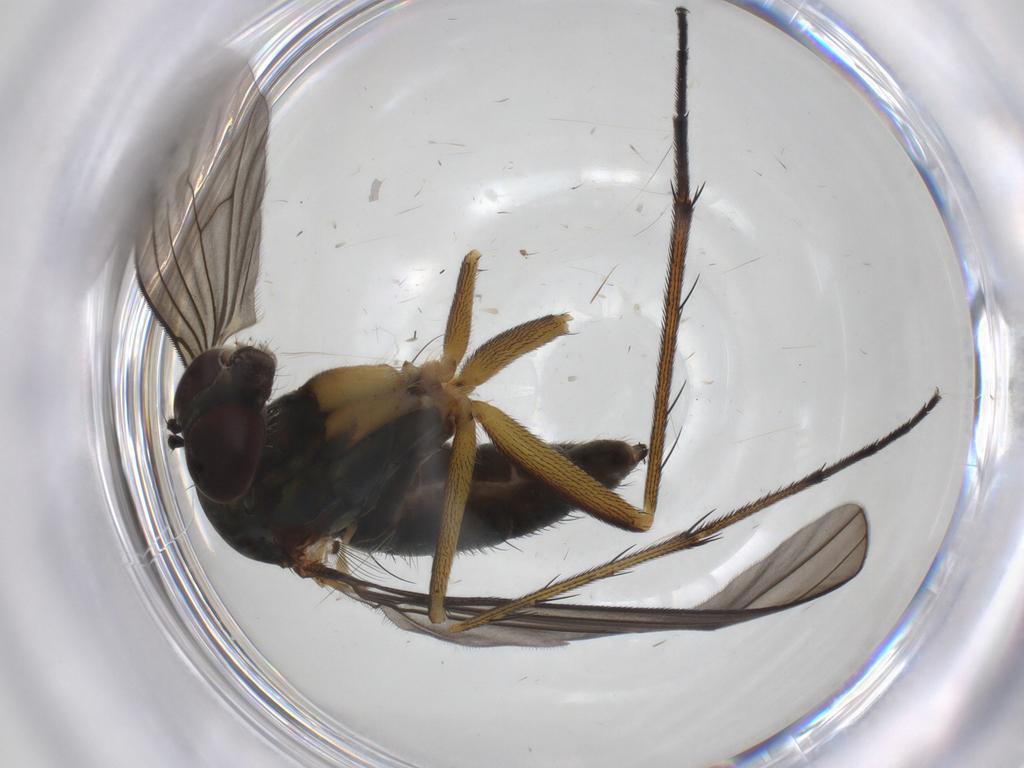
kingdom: Animalia
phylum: Arthropoda
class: Insecta
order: Diptera
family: Dolichopodidae
